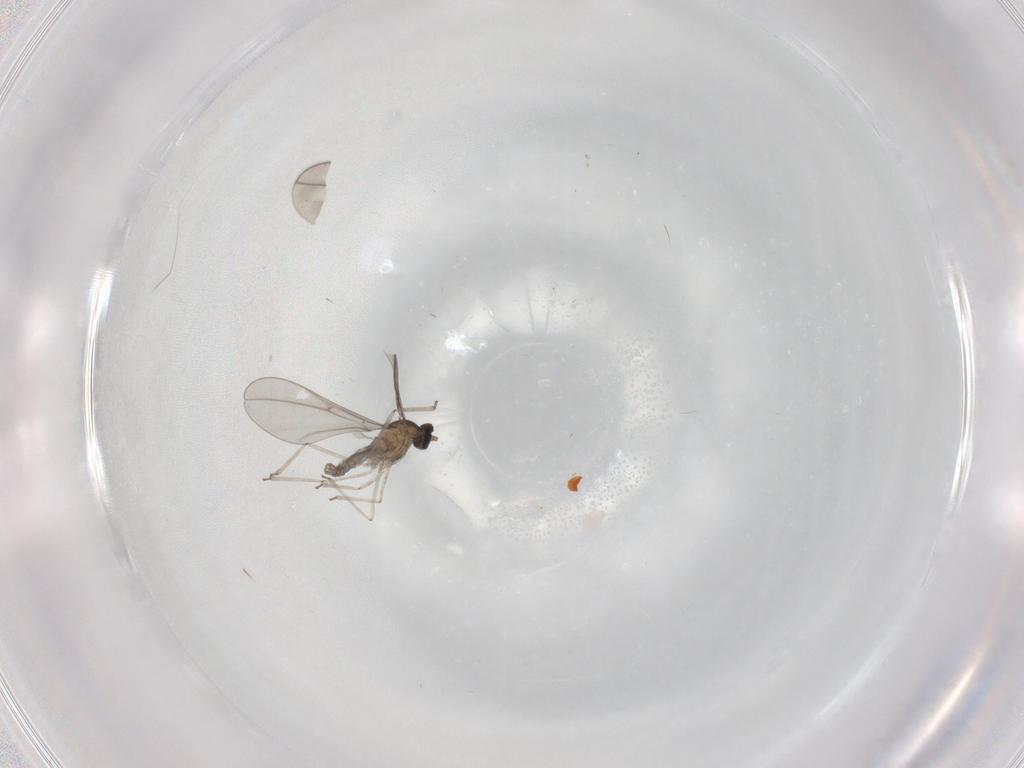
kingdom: Animalia
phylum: Arthropoda
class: Insecta
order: Diptera
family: Cecidomyiidae
